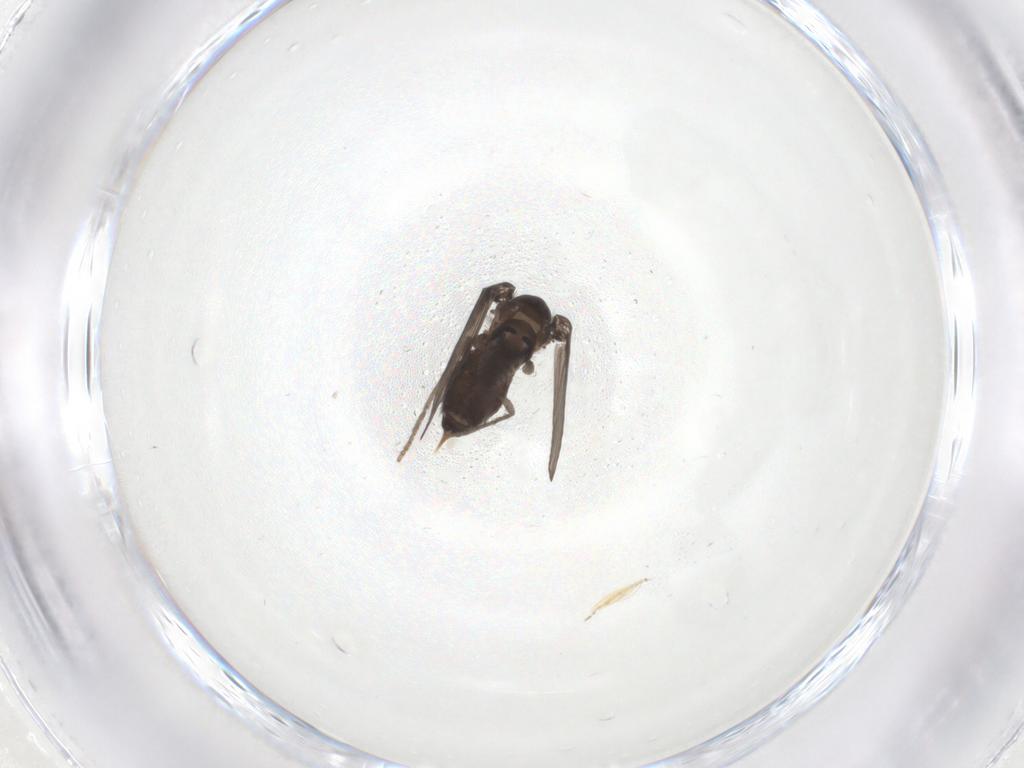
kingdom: Animalia
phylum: Arthropoda
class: Insecta
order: Diptera
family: Ceratopogonidae
